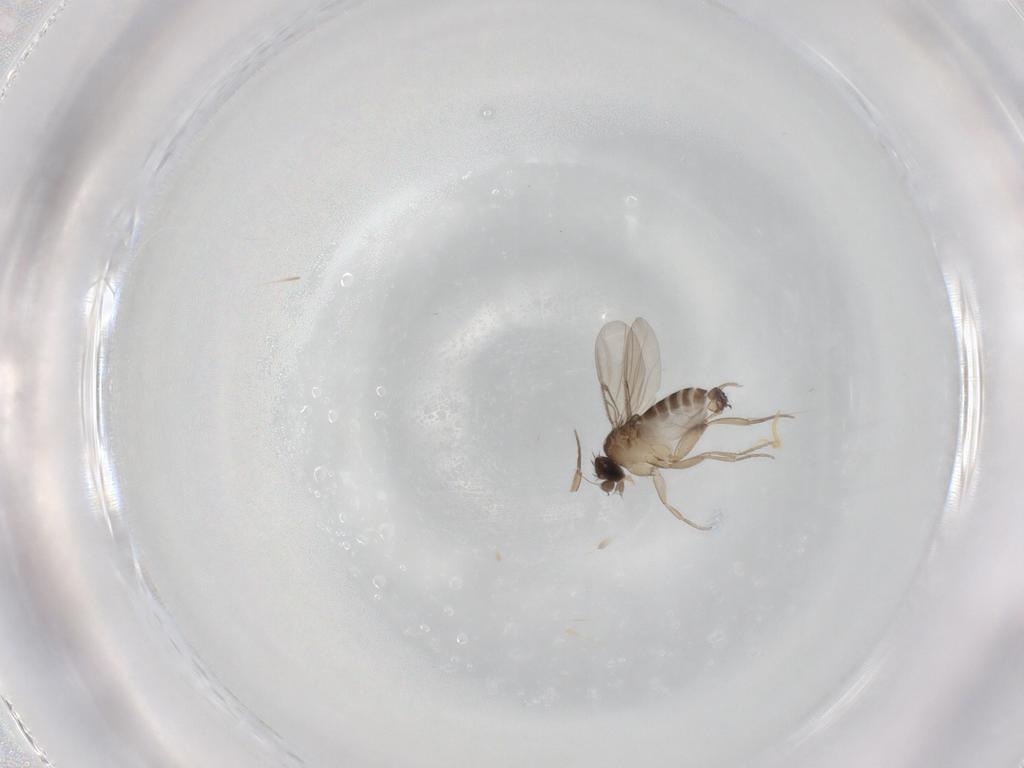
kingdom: Animalia
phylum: Arthropoda
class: Insecta
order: Diptera
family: Phoridae
